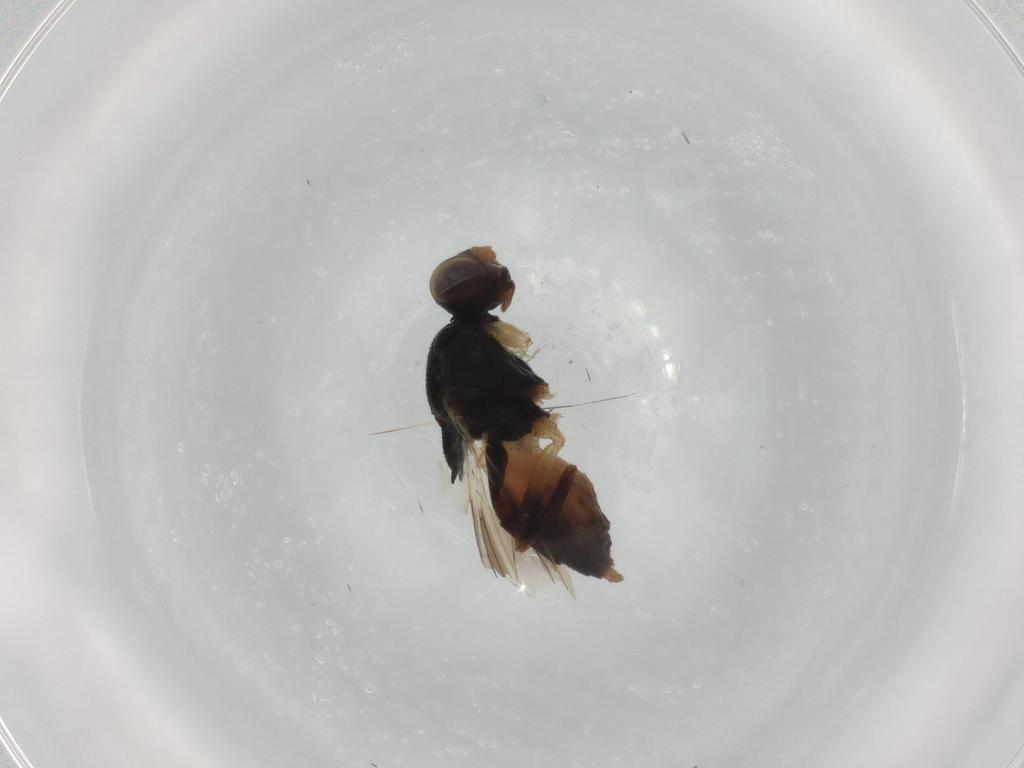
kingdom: Animalia
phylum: Arthropoda
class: Insecta
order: Diptera
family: Chloropidae
